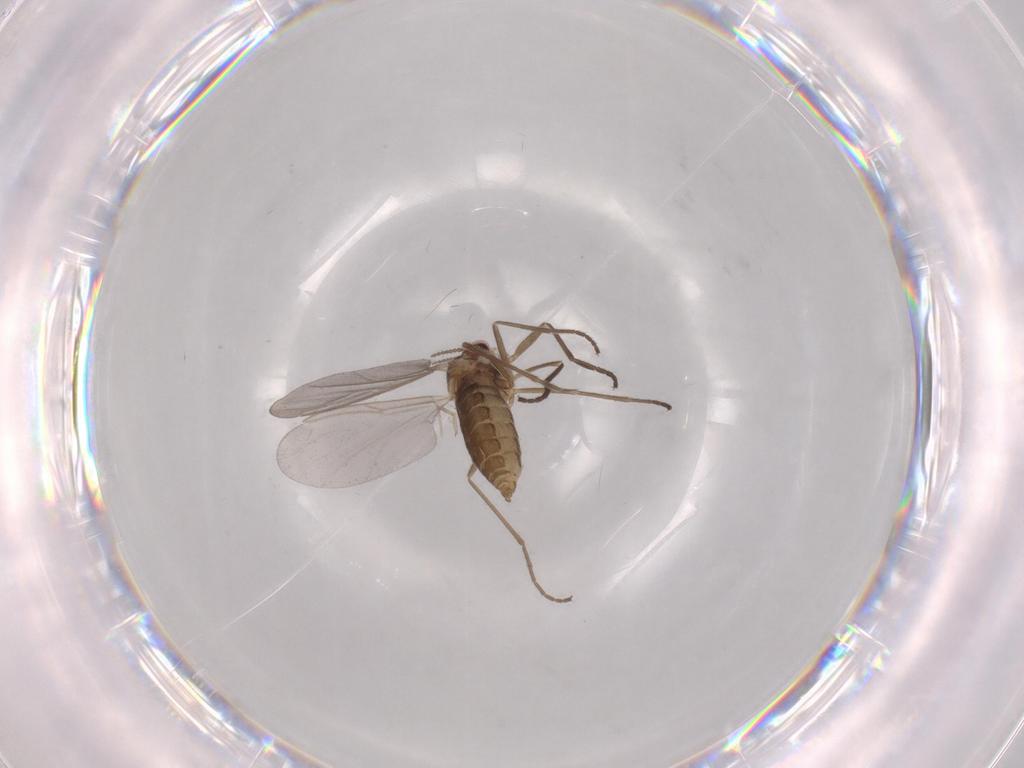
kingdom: Animalia
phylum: Arthropoda
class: Insecta
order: Diptera
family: Cecidomyiidae
